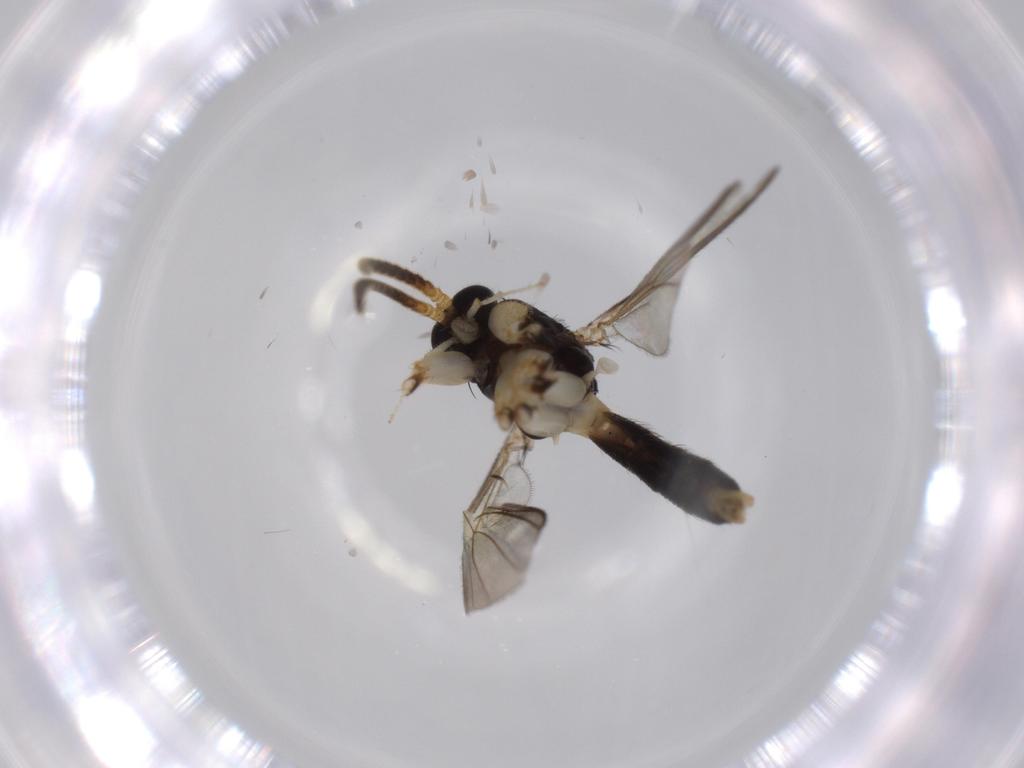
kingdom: Animalia
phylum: Arthropoda
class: Insecta
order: Diptera
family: Mycetophilidae
